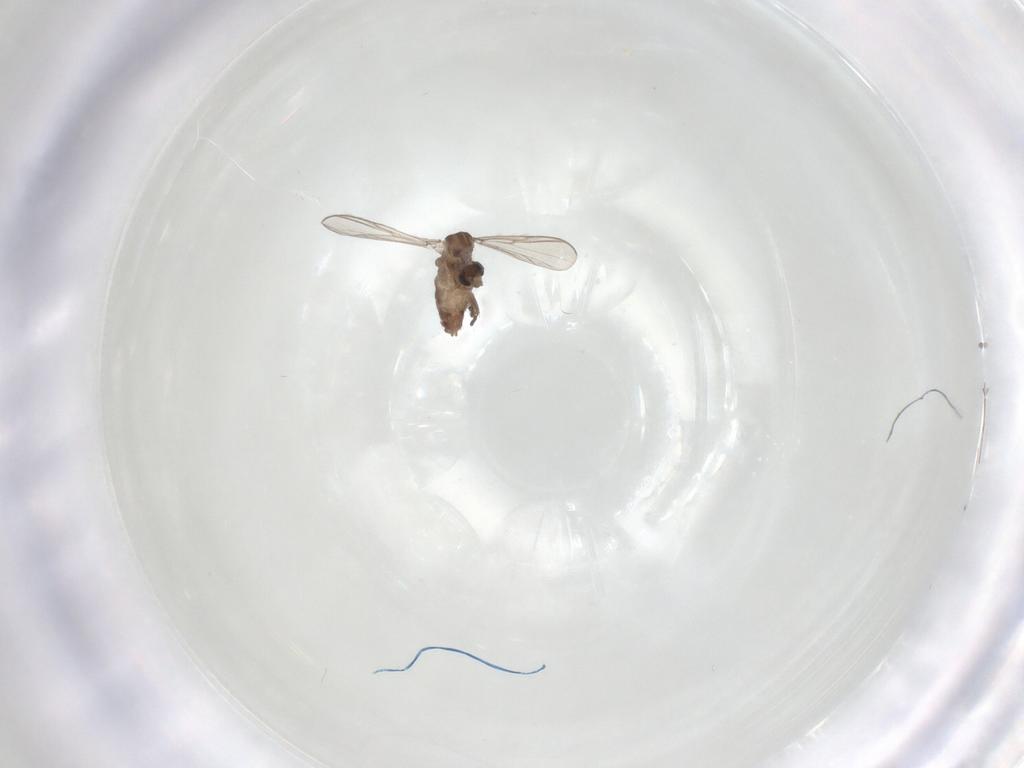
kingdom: Animalia
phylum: Arthropoda
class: Insecta
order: Diptera
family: Chironomidae
